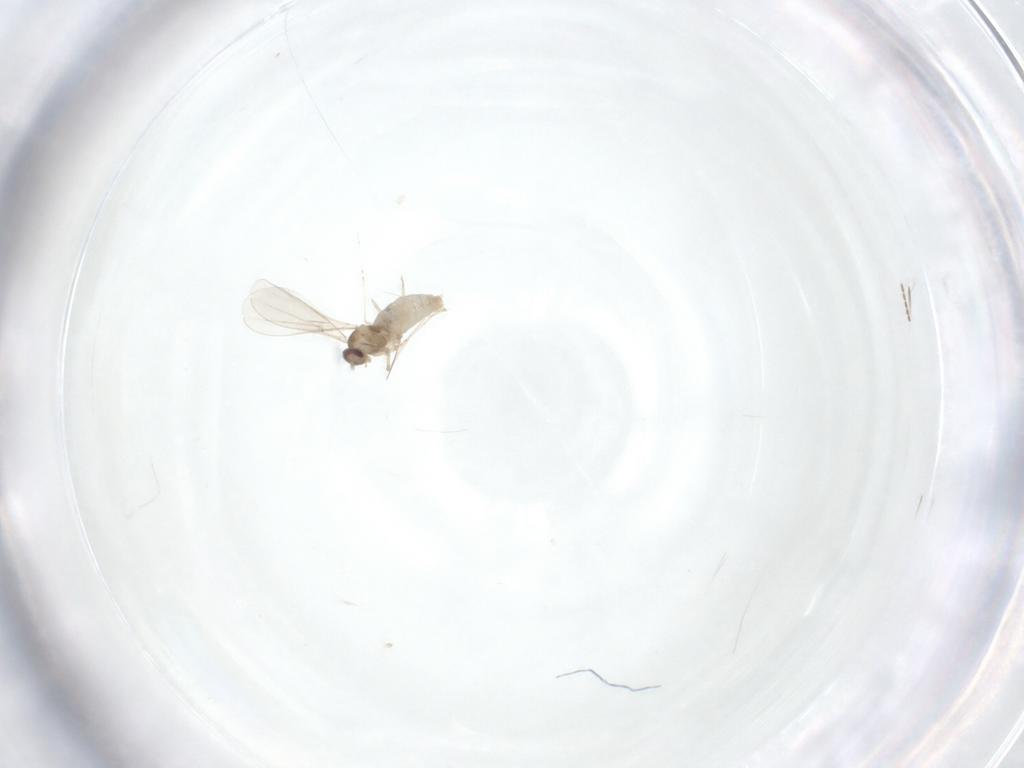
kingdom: Animalia
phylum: Arthropoda
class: Insecta
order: Diptera
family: Ceratopogonidae
